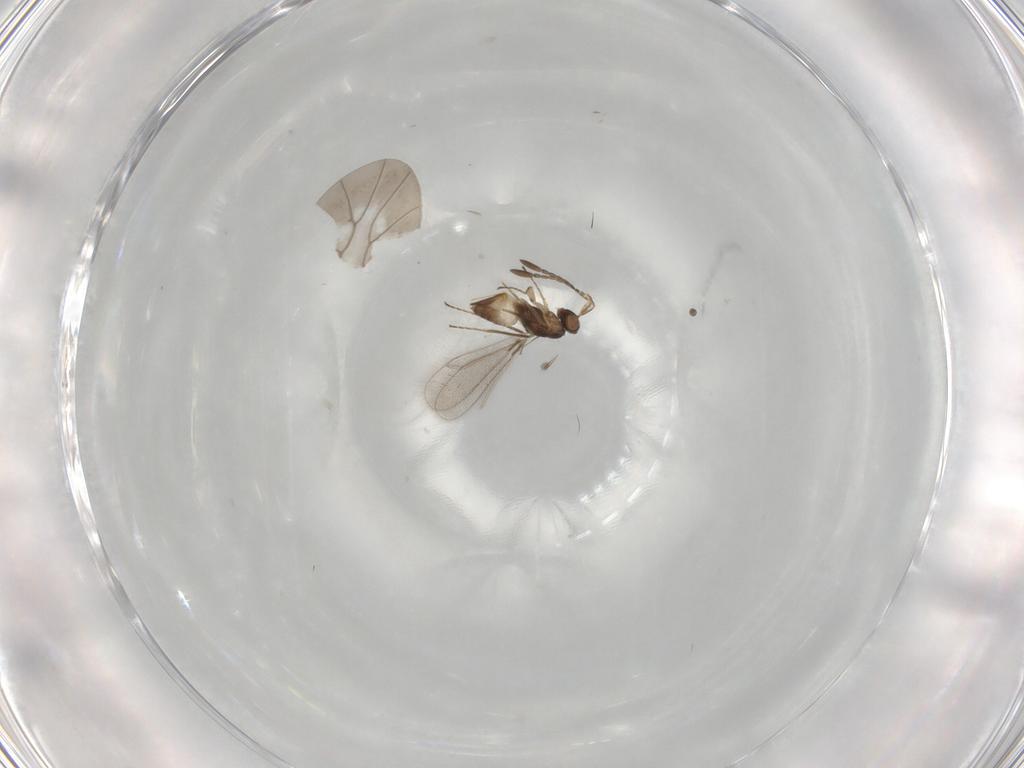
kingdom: Animalia
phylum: Arthropoda
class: Insecta
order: Hymenoptera
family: Mymaridae
